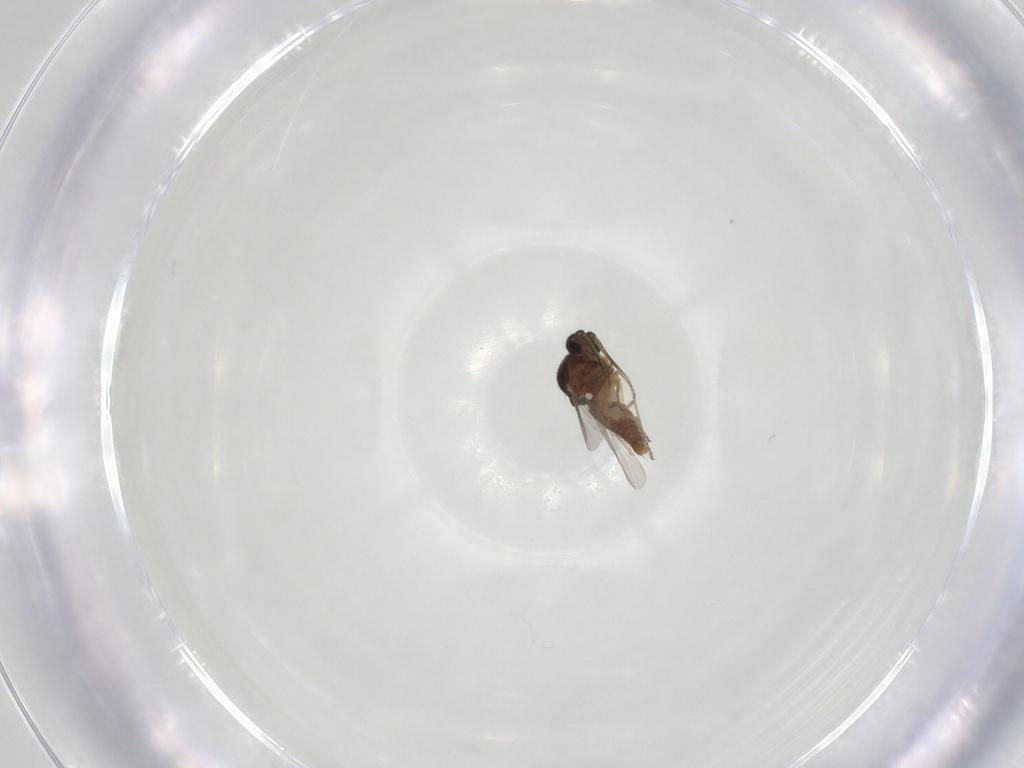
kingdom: Animalia
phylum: Arthropoda
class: Insecta
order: Diptera
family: Ceratopogonidae
